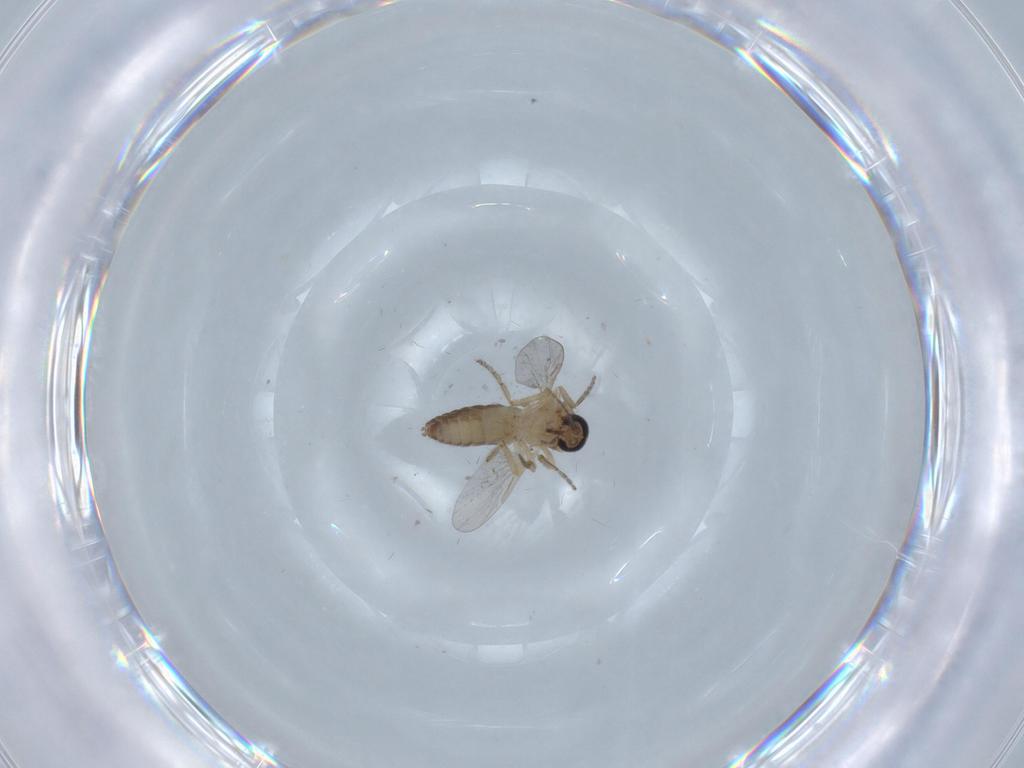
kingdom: Animalia
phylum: Arthropoda
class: Insecta
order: Diptera
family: Ceratopogonidae
